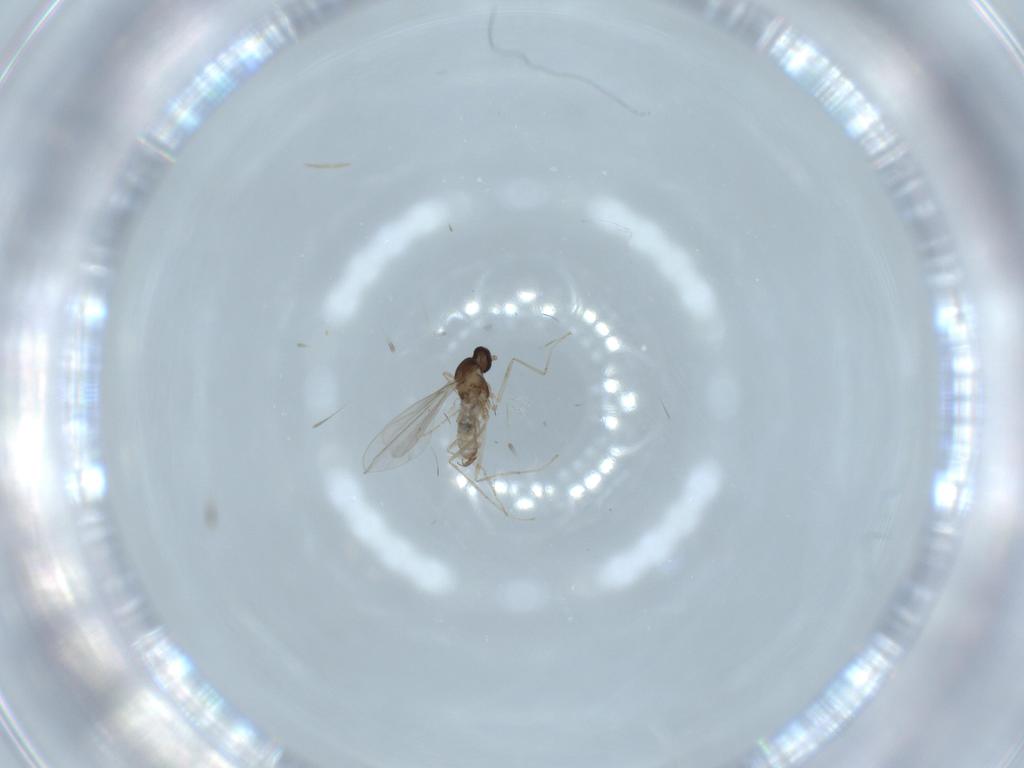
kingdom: Animalia
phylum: Arthropoda
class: Insecta
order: Diptera
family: Cecidomyiidae
